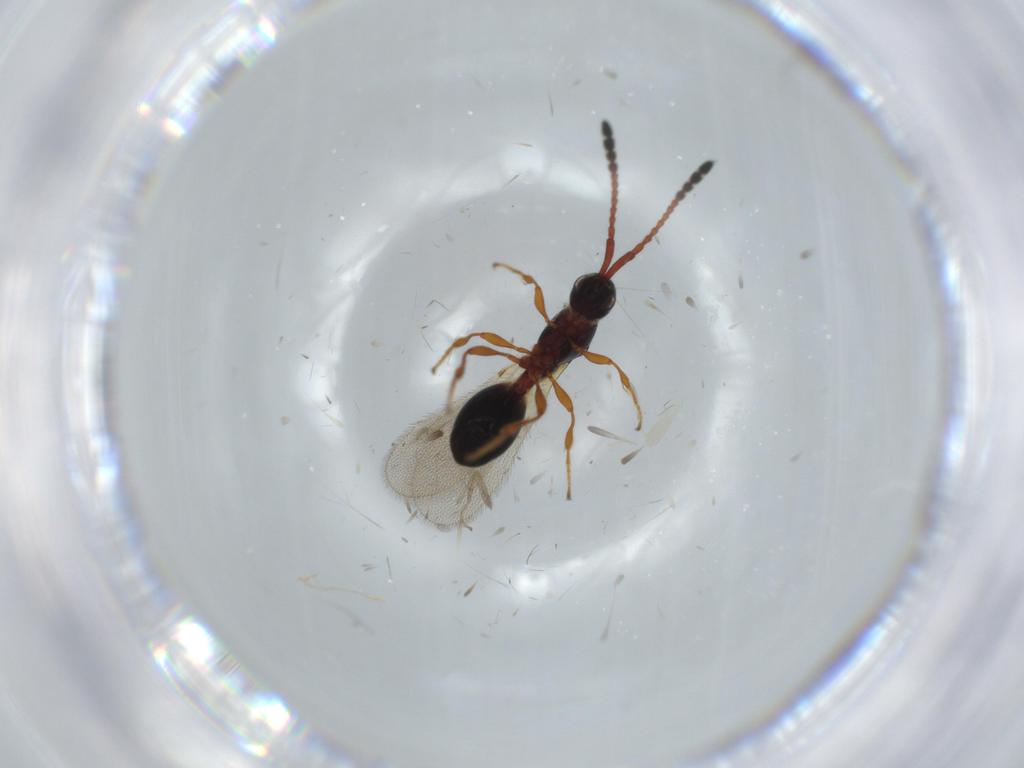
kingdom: Animalia
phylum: Arthropoda
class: Insecta
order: Hymenoptera
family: Diapriidae
